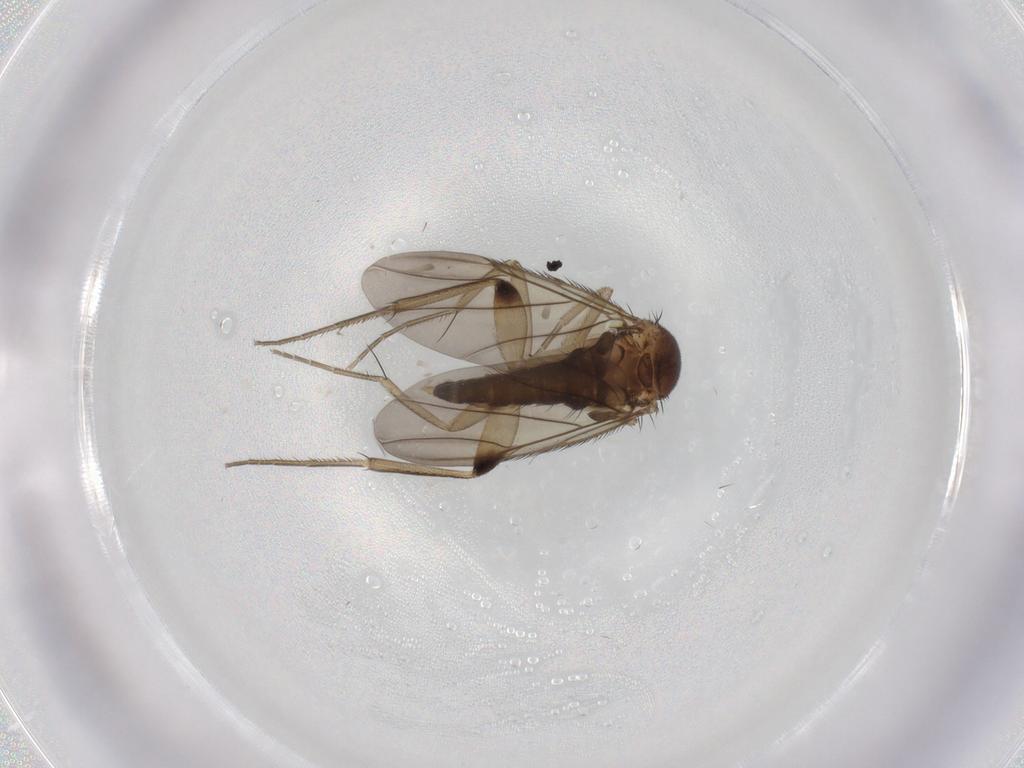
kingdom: Animalia
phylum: Arthropoda
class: Insecta
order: Diptera
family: Phoridae
